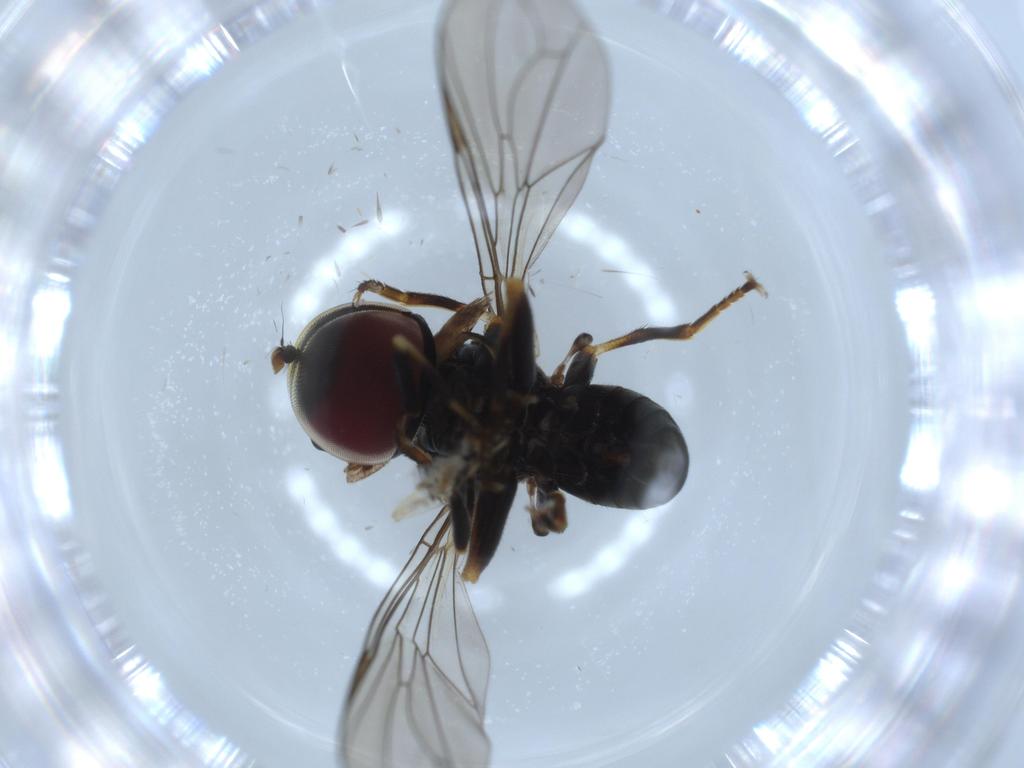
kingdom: Animalia
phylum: Arthropoda
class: Insecta
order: Diptera
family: Pipunculidae
